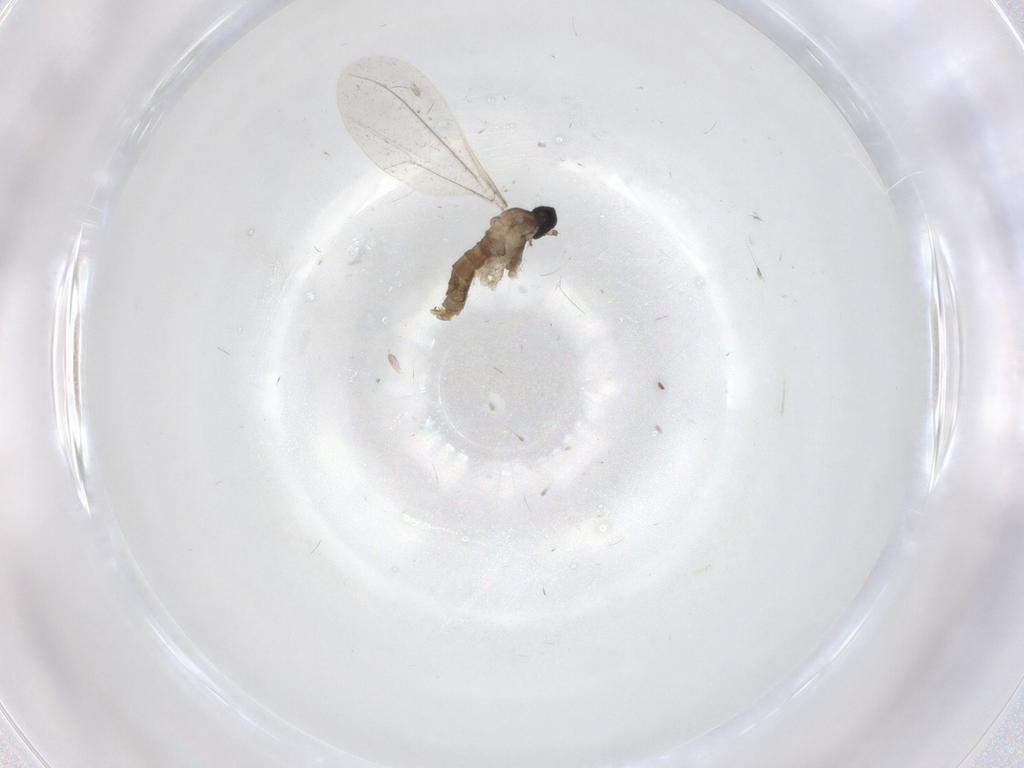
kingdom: Animalia
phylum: Arthropoda
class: Insecta
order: Diptera
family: Cecidomyiidae
